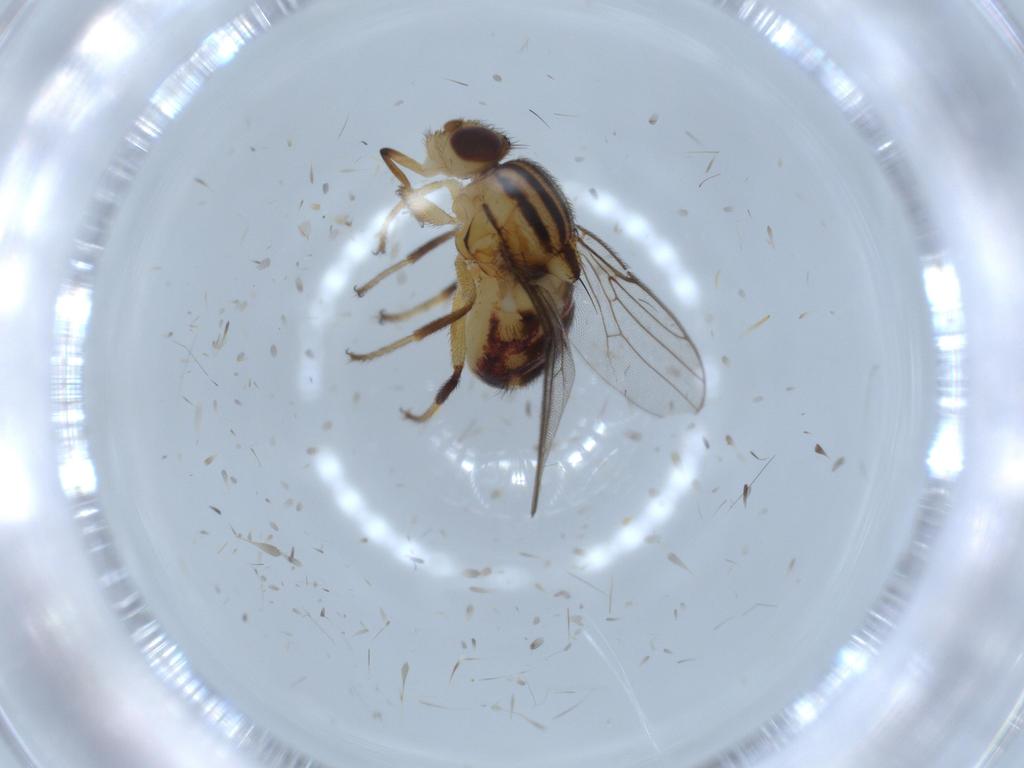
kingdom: Animalia
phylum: Arthropoda
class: Insecta
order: Diptera
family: Chloropidae
